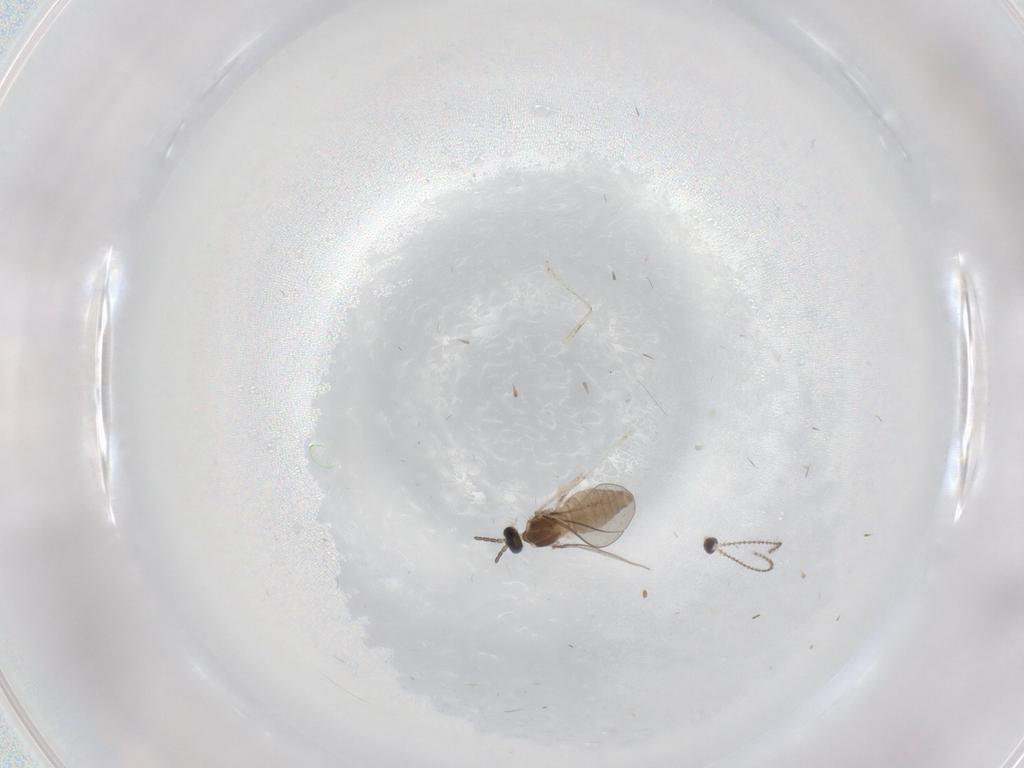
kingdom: Animalia
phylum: Arthropoda
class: Insecta
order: Diptera
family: Cecidomyiidae
